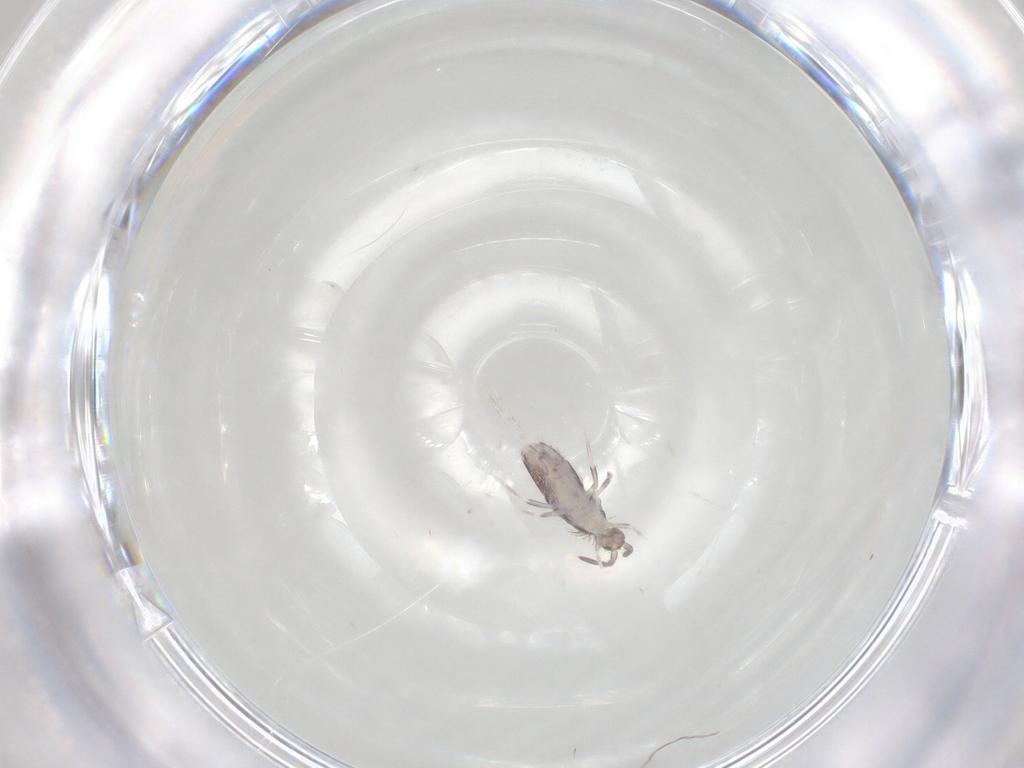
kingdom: Animalia
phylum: Arthropoda
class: Collembola
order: Poduromorpha
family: Hypogastruridae
